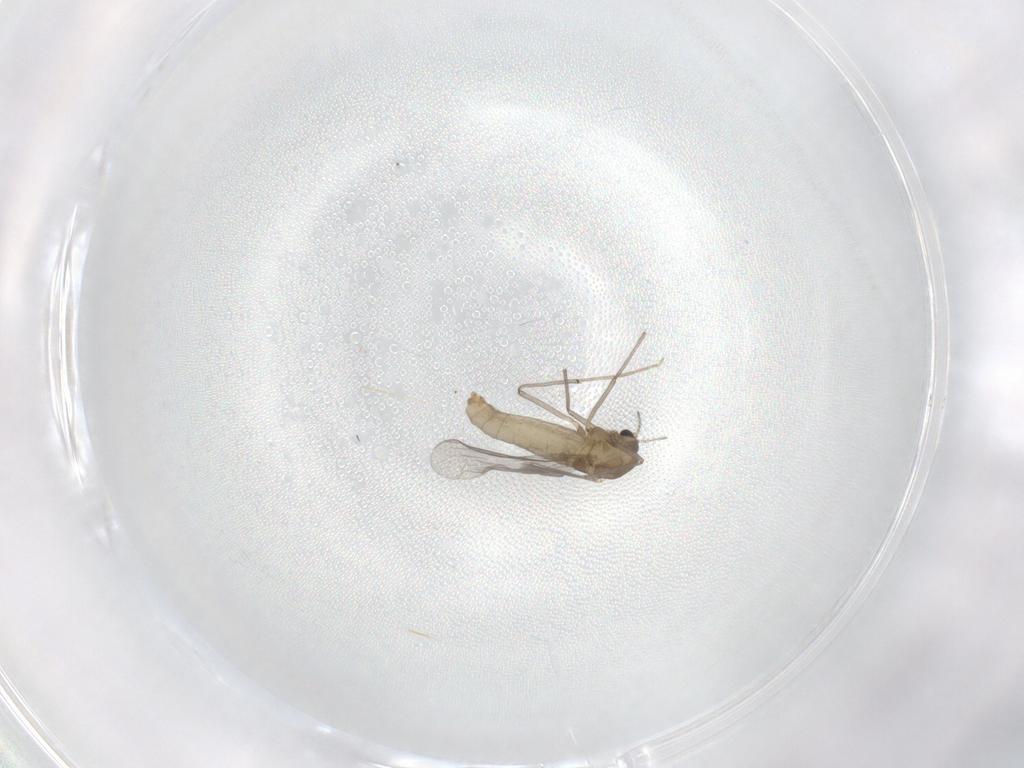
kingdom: Animalia
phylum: Arthropoda
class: Insecta
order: Diptera
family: Chironomidae
